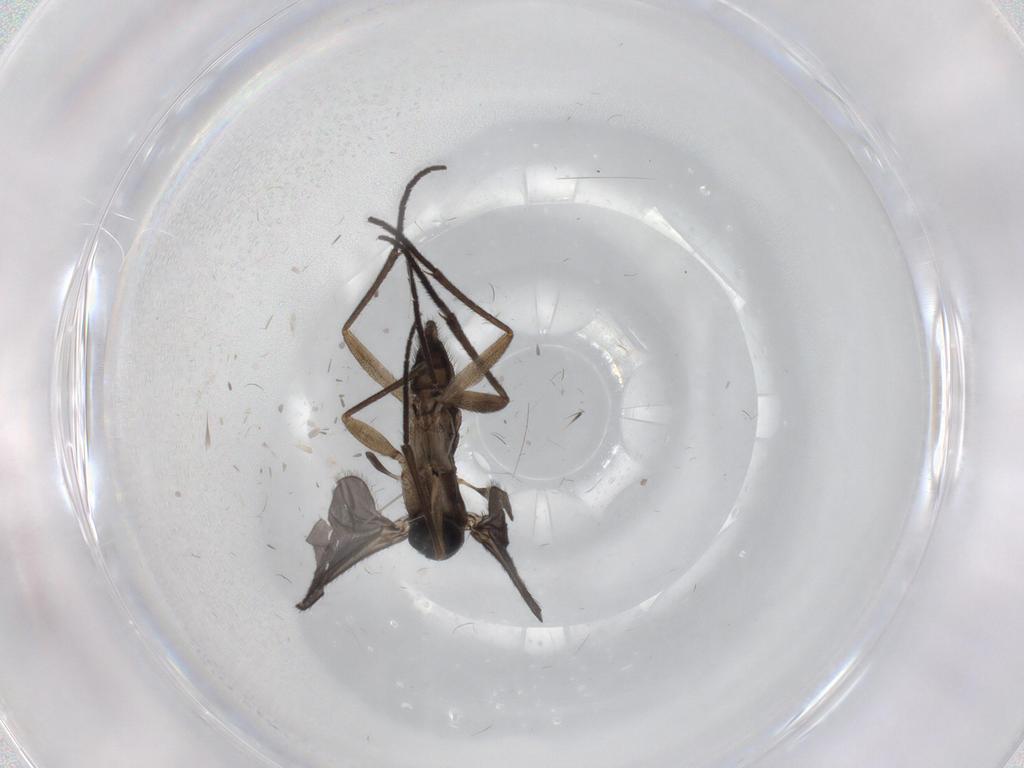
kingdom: Animalia
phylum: Arthropoda
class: Insecta
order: Diptera
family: Sciaridae
